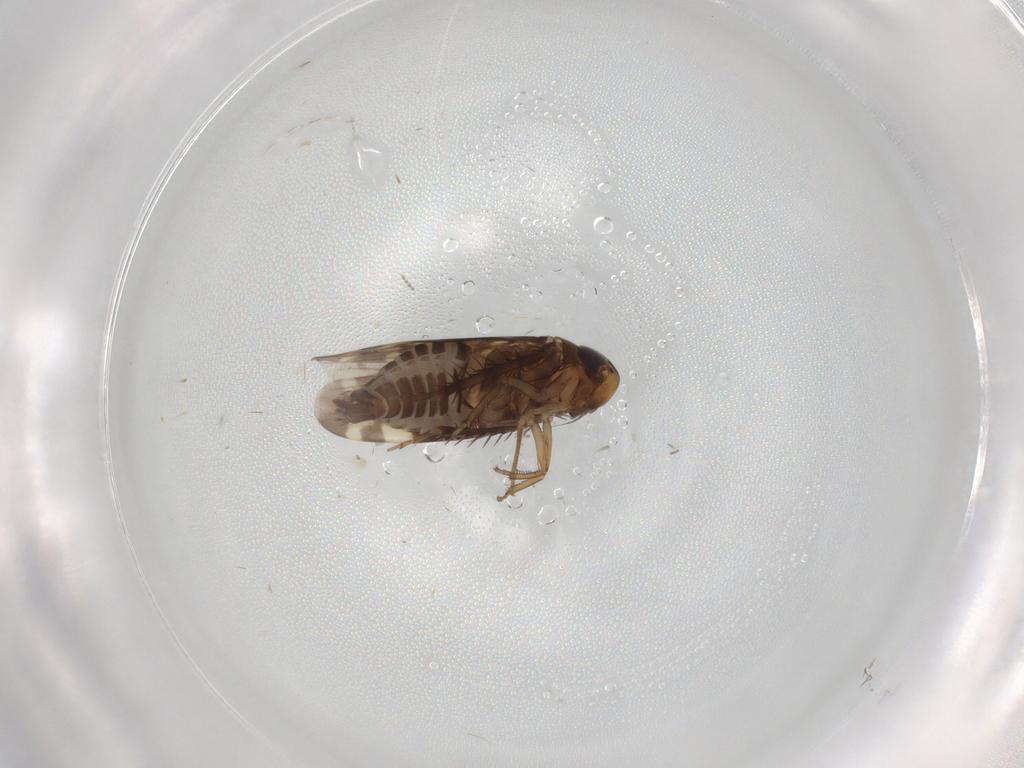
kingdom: Animalia
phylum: Arthropoda
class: Insecta
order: Hemiptera
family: Cicadellidae
